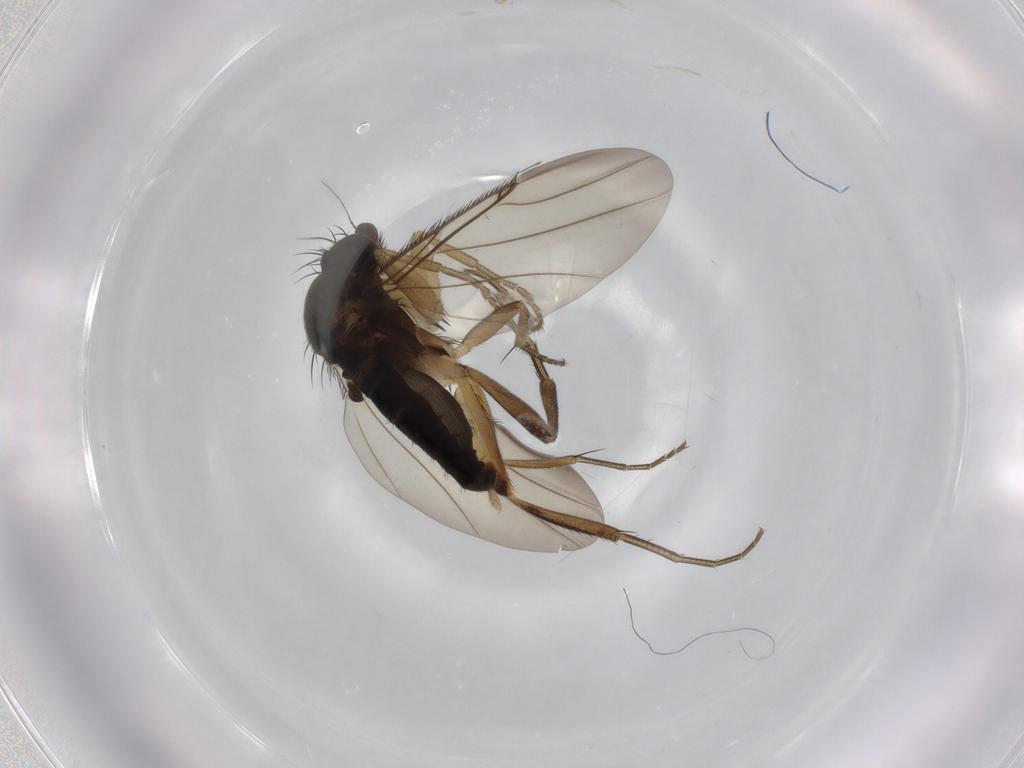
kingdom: Animalia
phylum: Arthropoda
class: Insecta
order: Diptera
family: Phoridae
